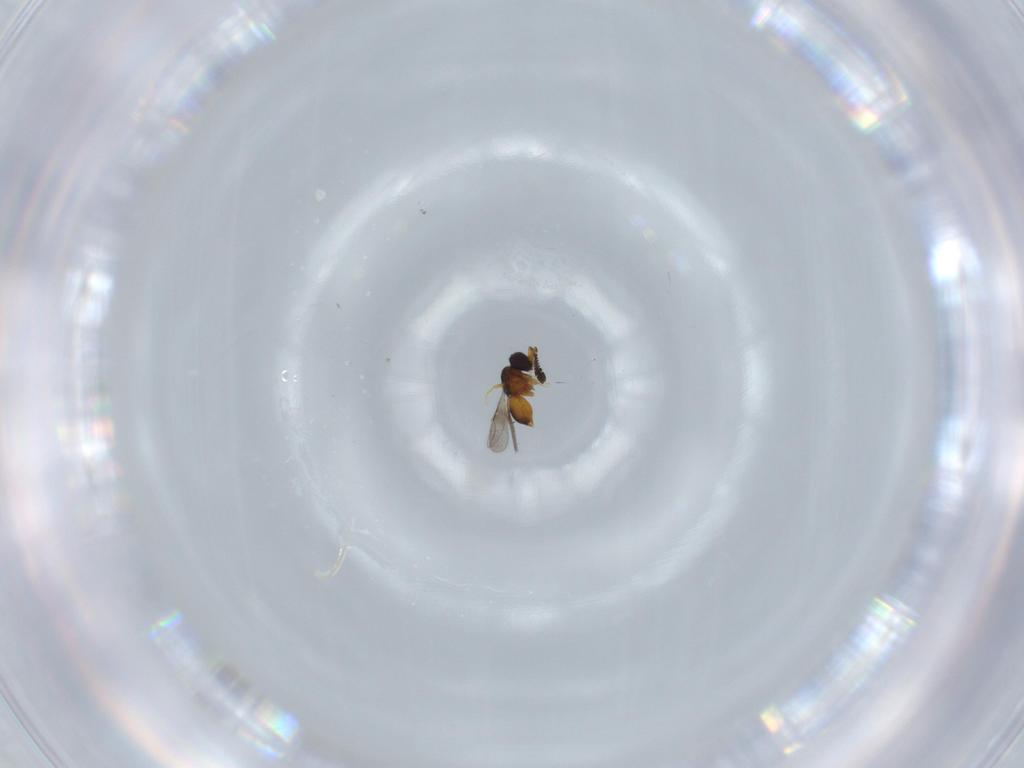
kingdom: Animalia
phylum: Arthropoda
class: Insecta
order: Hymenoptera
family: Ceraphronidae
